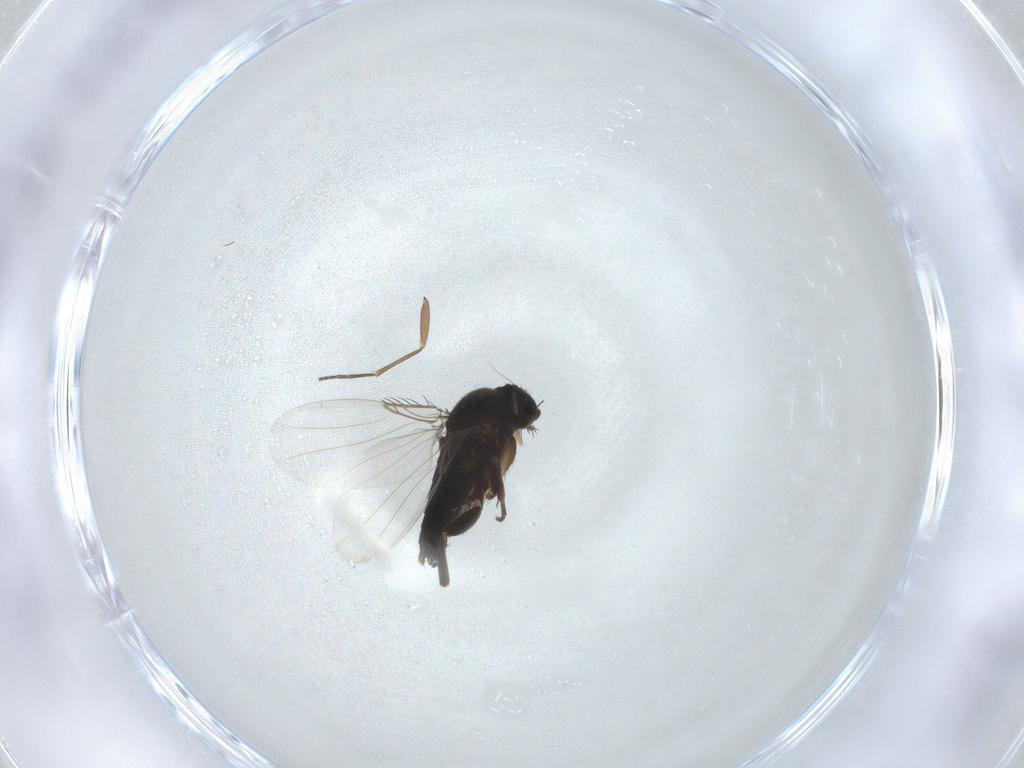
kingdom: Animalia
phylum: Arthropoda
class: Insecta
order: Diptera
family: Phoridae
